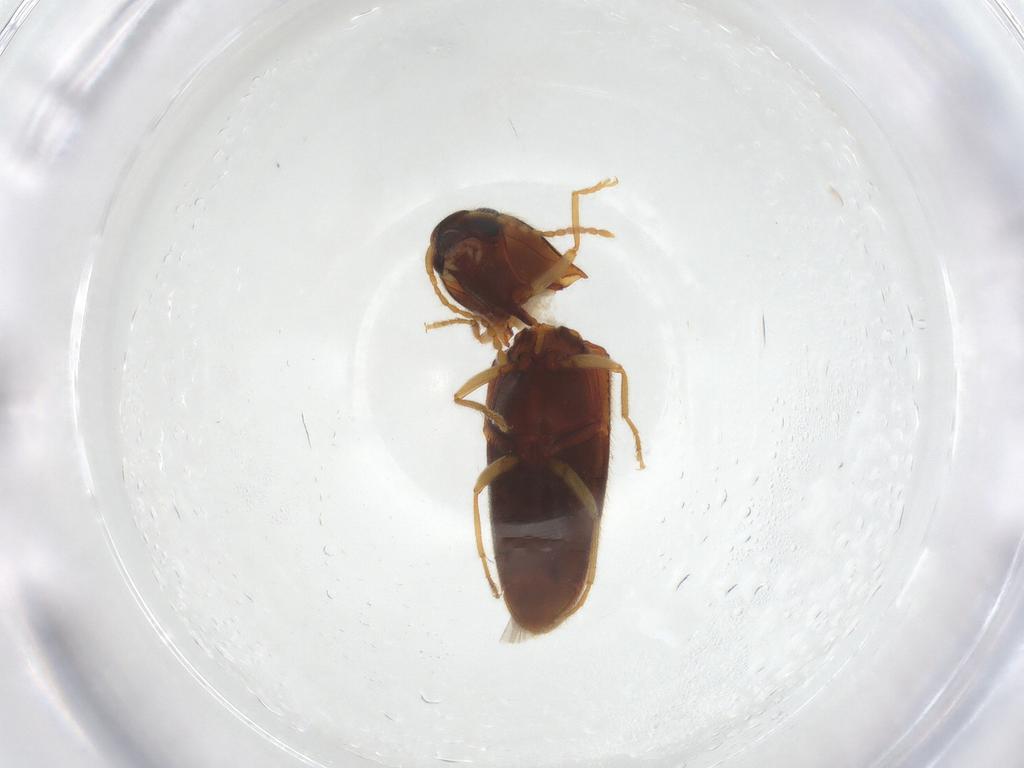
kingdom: Animalia
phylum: Arthropoda
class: Insecta
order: Coleoptera
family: Elateridae
